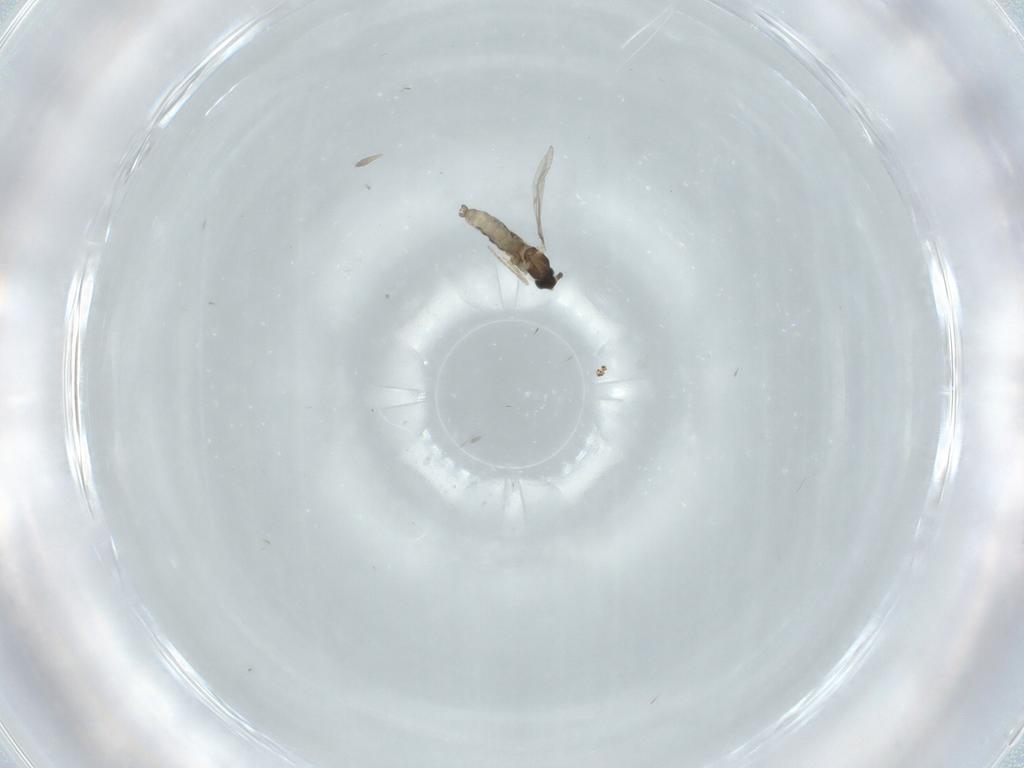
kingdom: Animalia
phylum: Arthropoda
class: Insecta
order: Diptera
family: Cecidomyiidae
